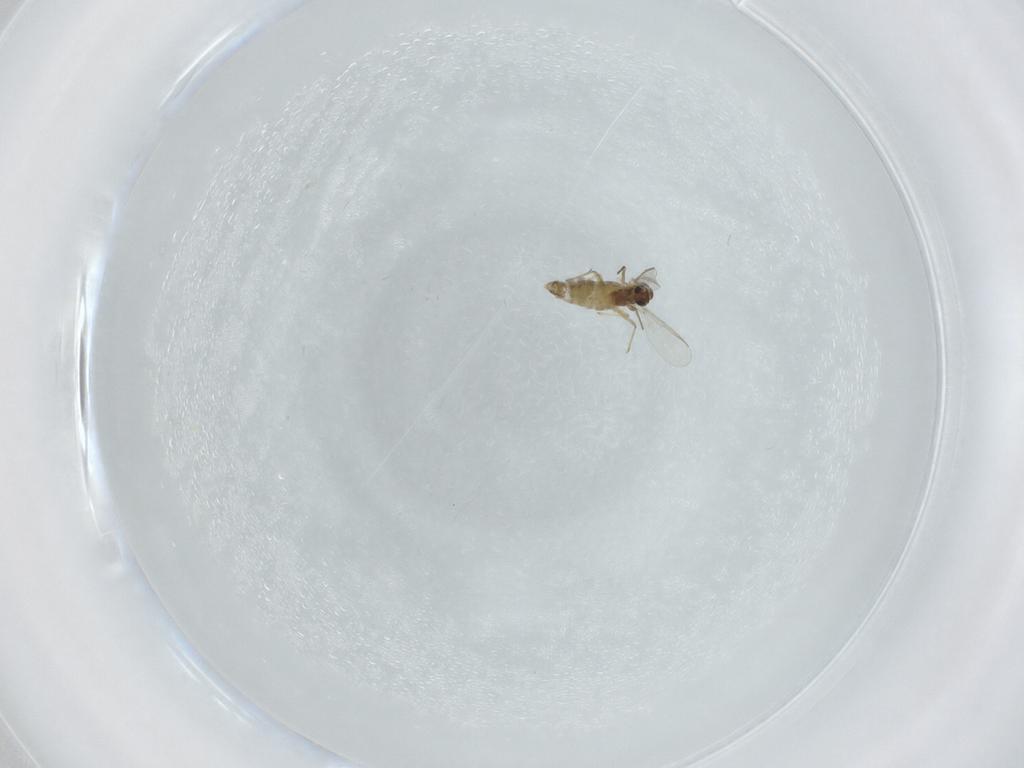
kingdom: Animalia
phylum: Arthropoda
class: Insecta
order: Diptera
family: Chironomidae
